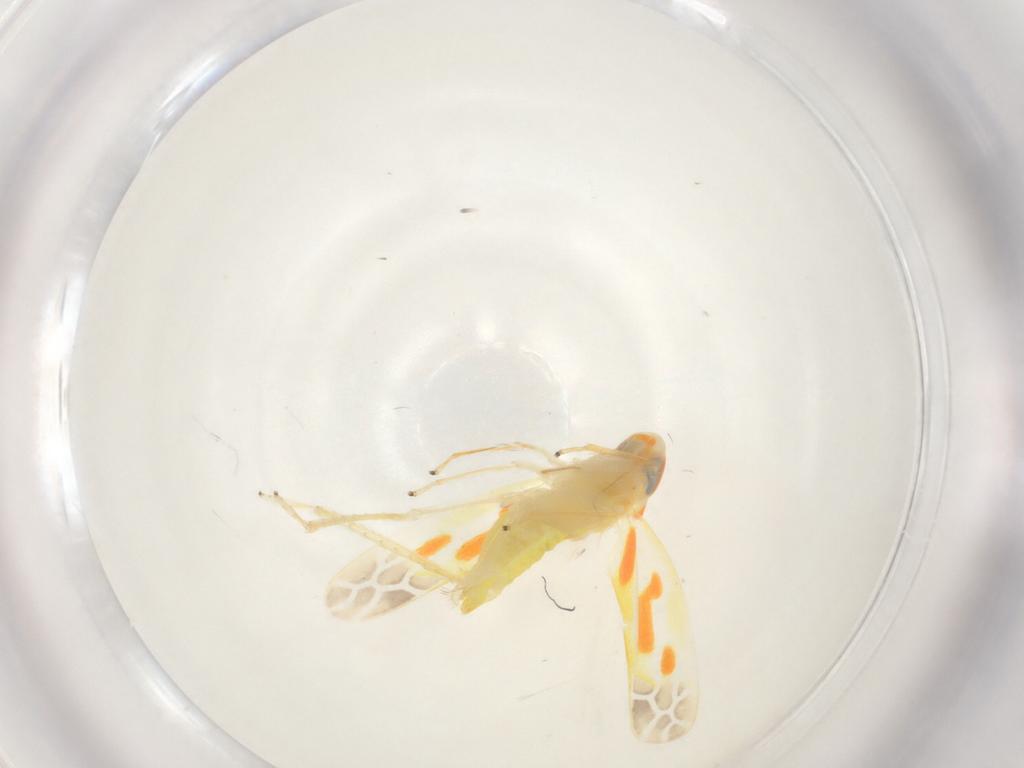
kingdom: Animalia
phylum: Arthropoda
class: Insecta
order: Hemiptera
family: Cicadellidae
